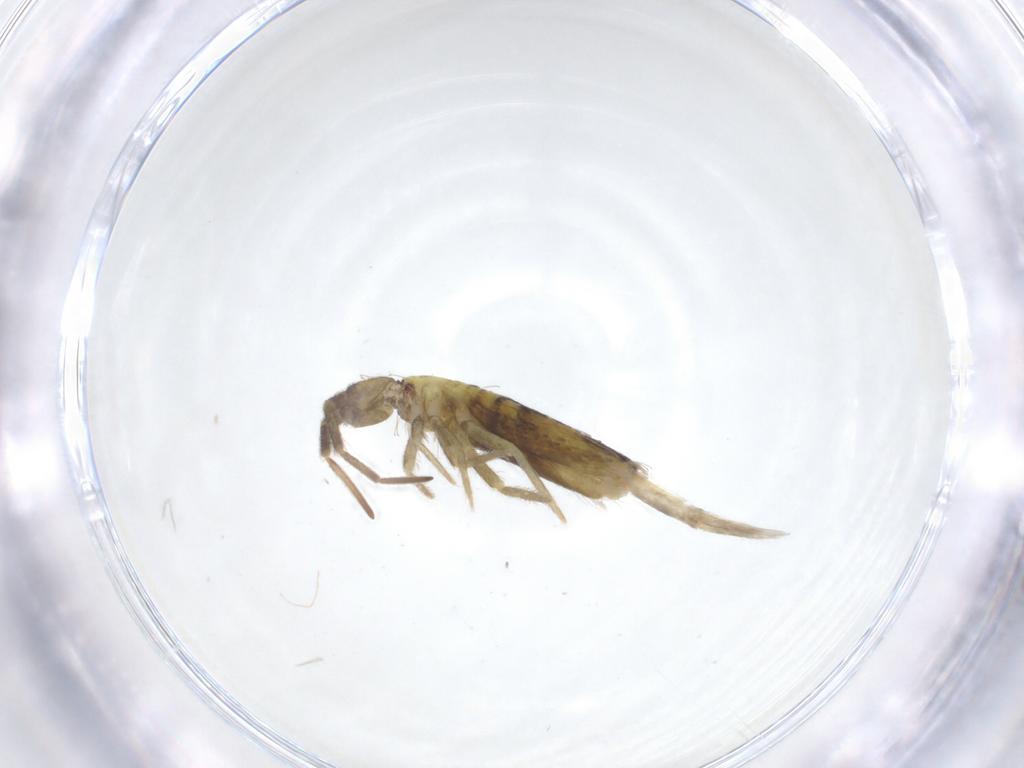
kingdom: Animalia
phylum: Arthropoda
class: Collembola
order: Entomobryomorpha
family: Entomobryidae
